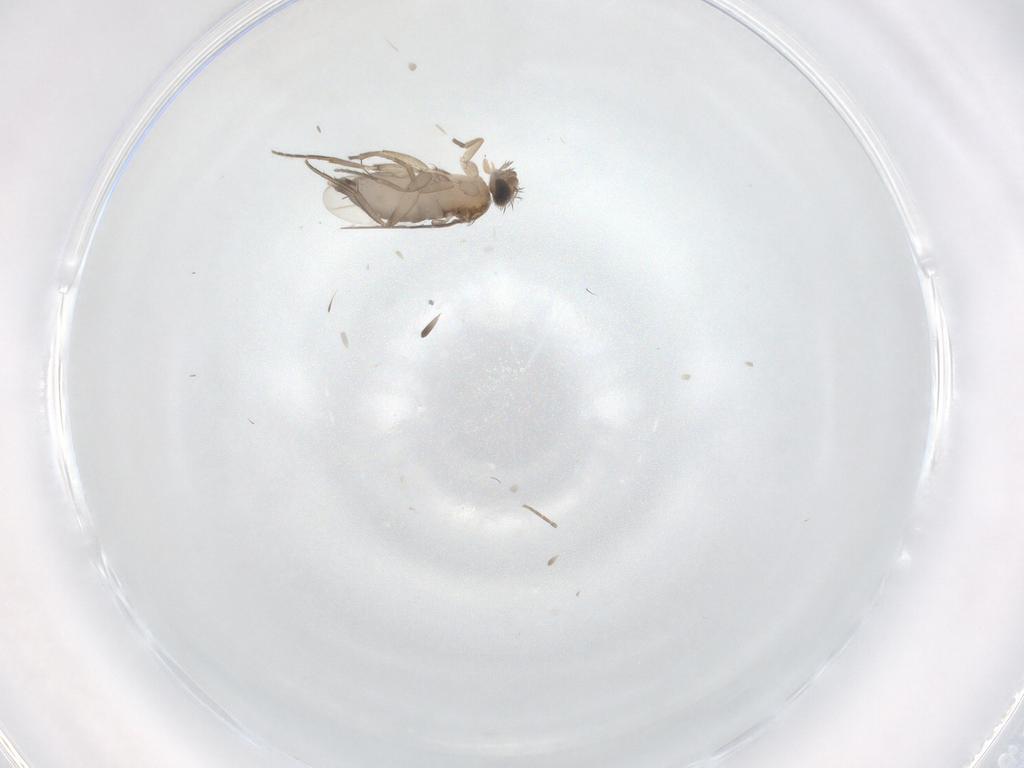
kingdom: Animalia
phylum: Arthropoda
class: Insecta
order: Diptera
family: Phoridae
